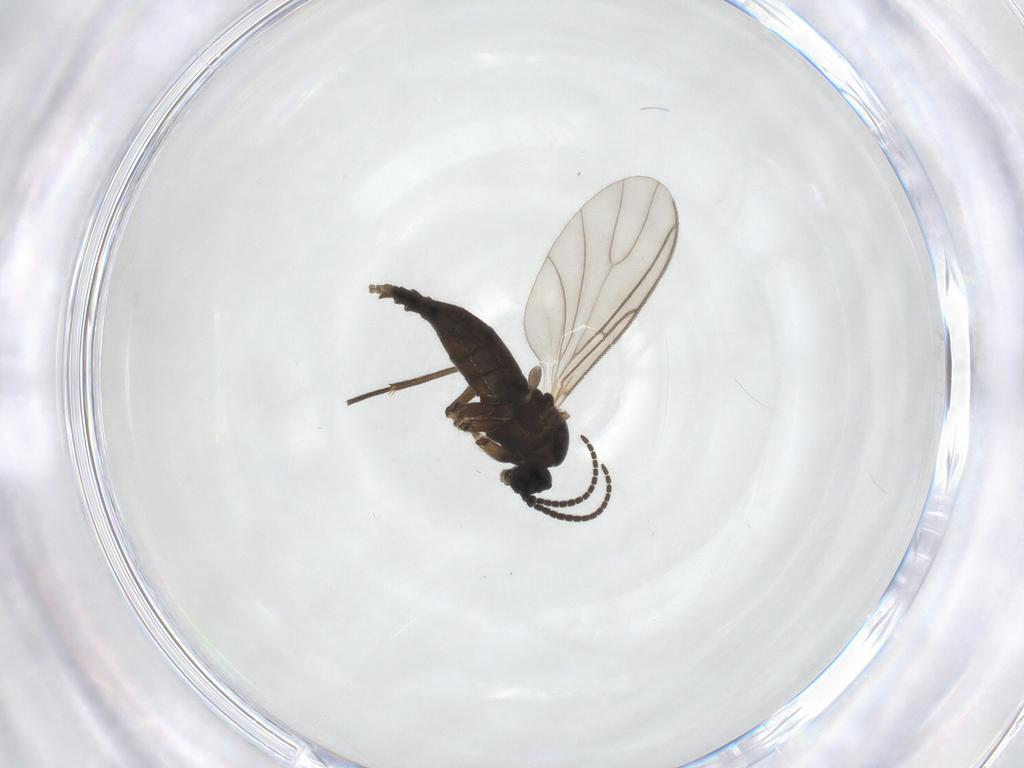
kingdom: Animalia
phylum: Arthropoda
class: Insecta
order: Diptera
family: Sciaridae
